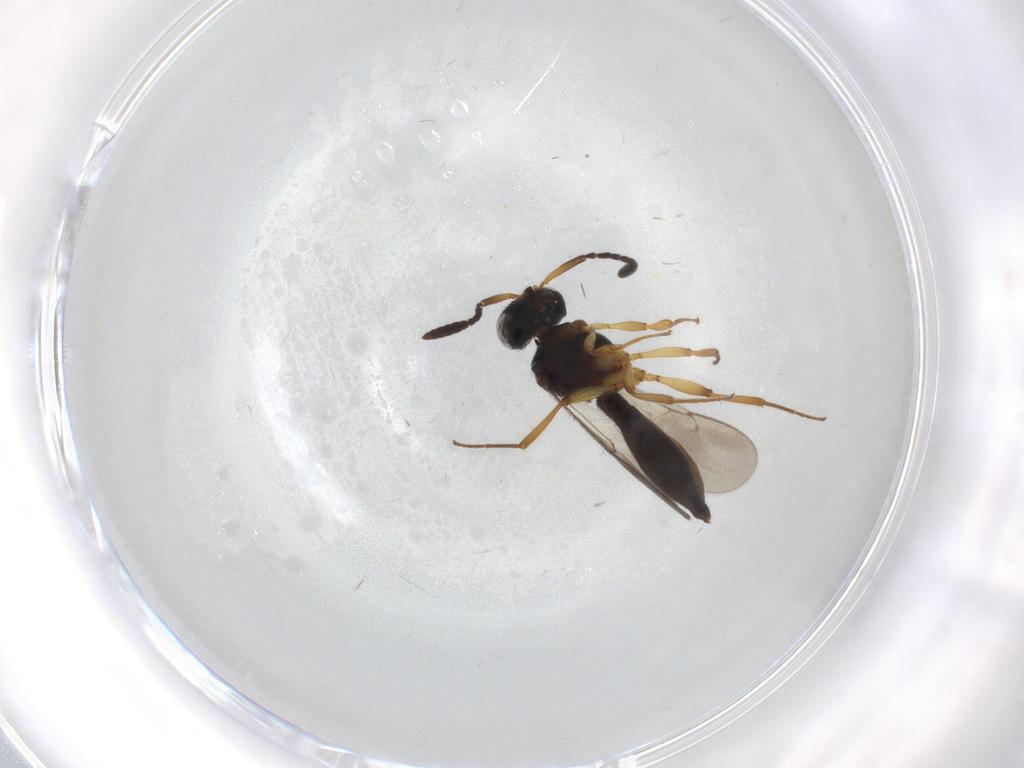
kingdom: Animalia
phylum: Arthropoda
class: Insecta
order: Hymenoptera
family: Scelionidae
